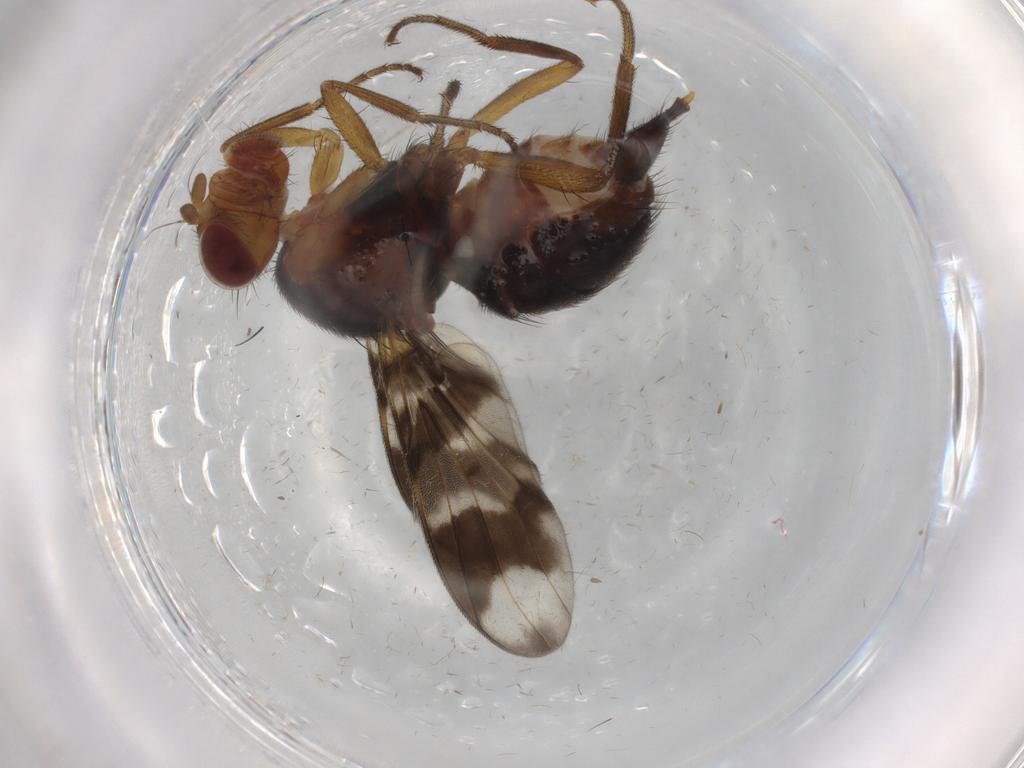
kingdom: Animalia
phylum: Arthropoda
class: Insecta
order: Diptera
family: Richardiidae
